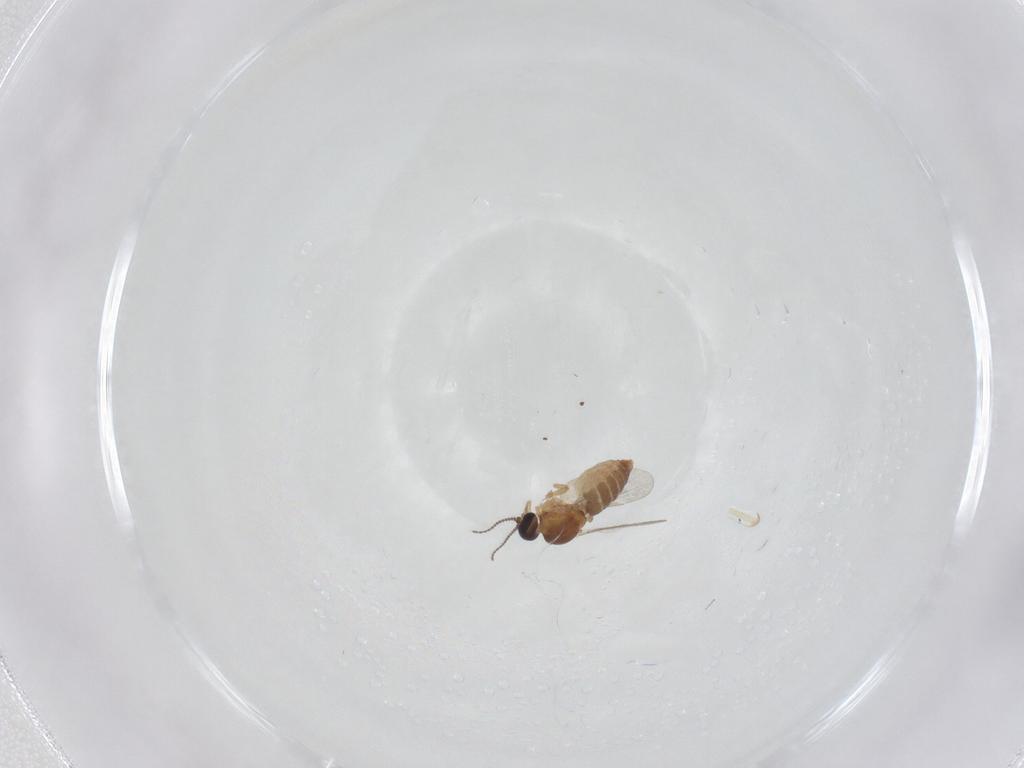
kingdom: Animalia
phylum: Arthropoda
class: Insecta
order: Diptera
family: Ceratopogonidae
